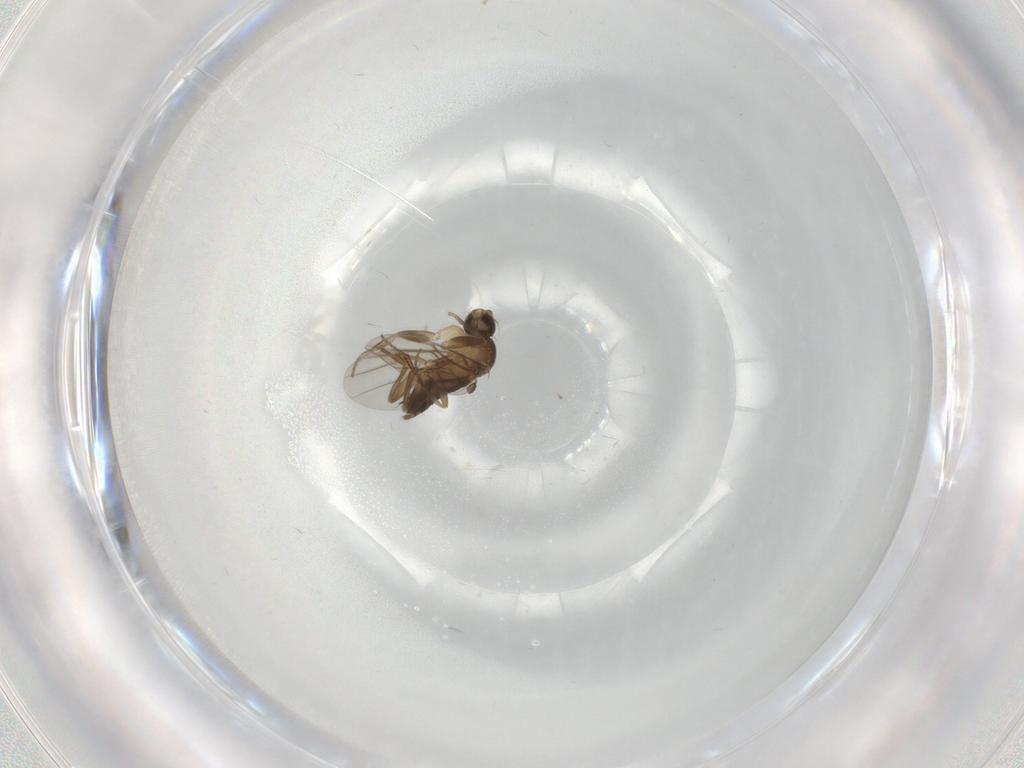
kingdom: Animalia
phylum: Arthropoda
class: Insecta
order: Diptera
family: Phoridae
